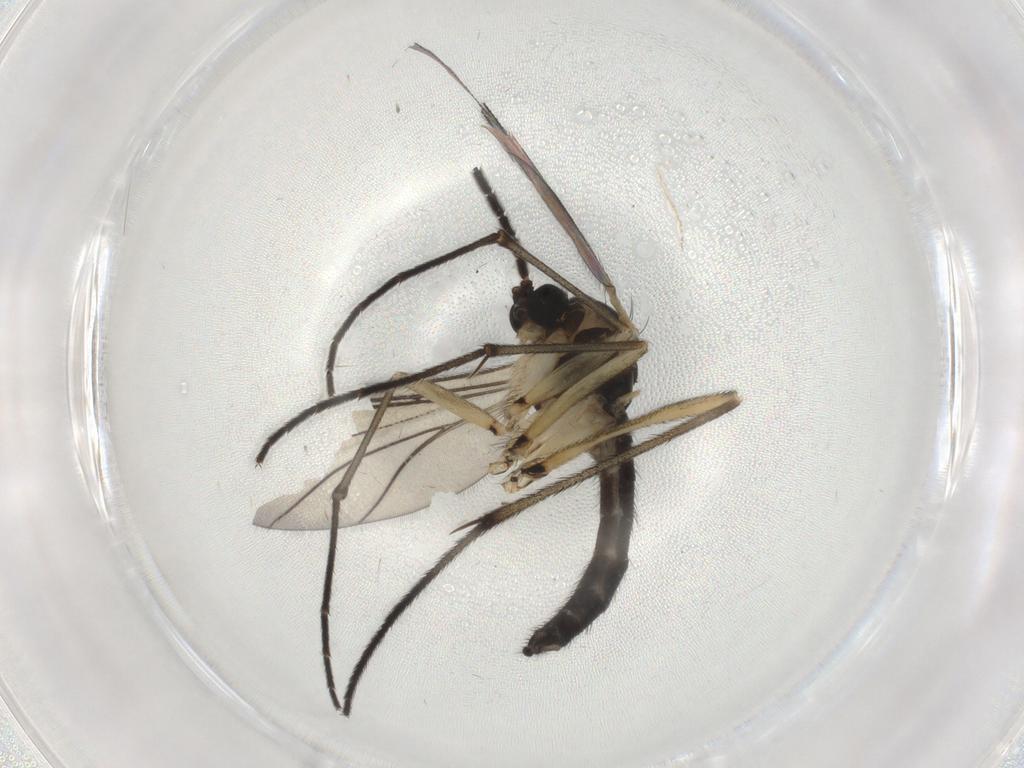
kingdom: Animalia
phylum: Arthropoda
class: Insecta
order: Diptera
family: Sciaridae
